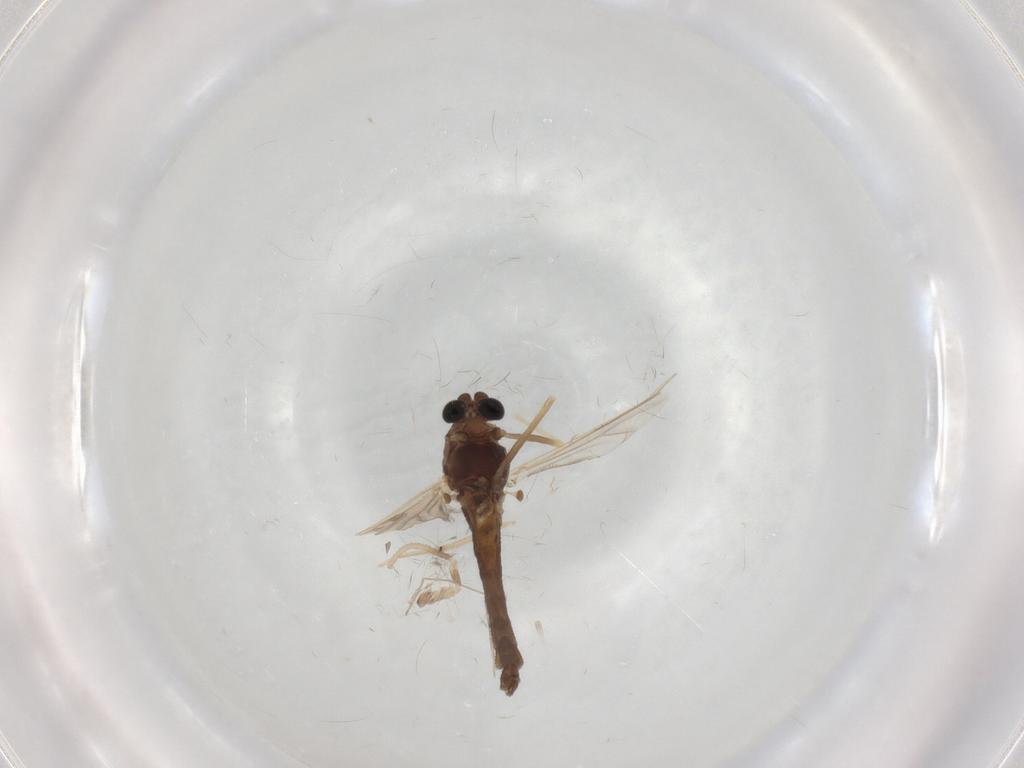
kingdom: Animalia
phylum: Arthropoda
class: Insecta
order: Diptera
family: Chironomidae
